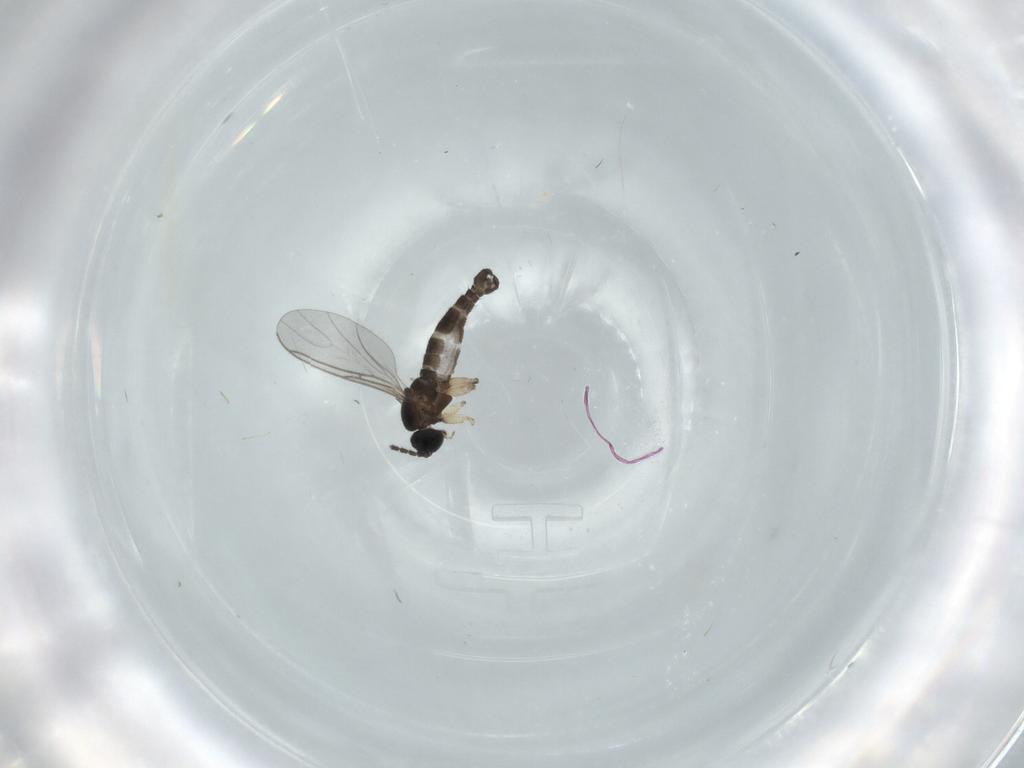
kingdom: Animalia
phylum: Arthropoda
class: Insecta
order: Diptera
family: Sciaridae
